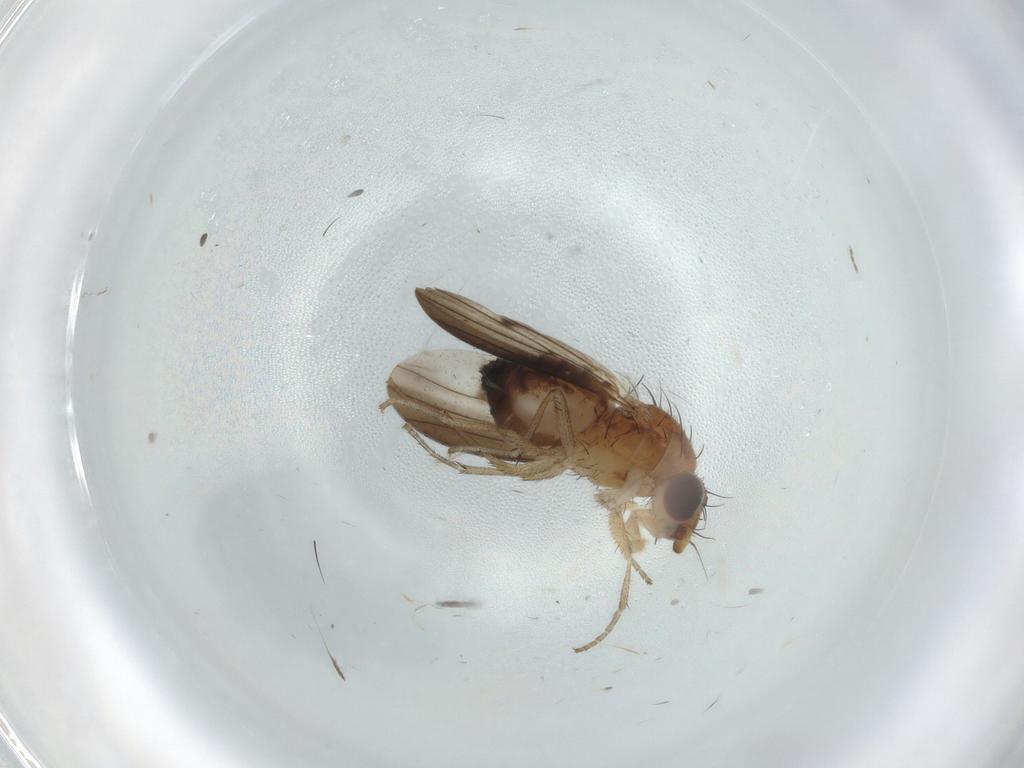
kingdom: Animalia
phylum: Arthropoda
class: Insecta
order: Diptera
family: Heleomyzidae
